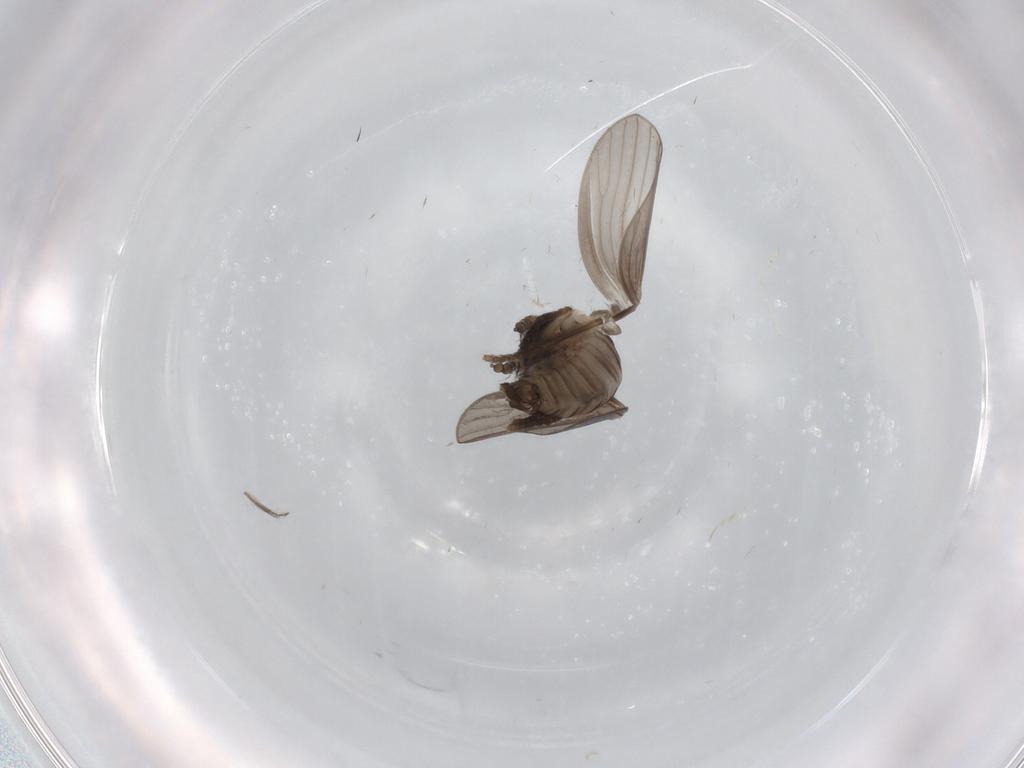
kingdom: Animalia
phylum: Arthropoda
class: Insecta
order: Diptera
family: Psychodidae
